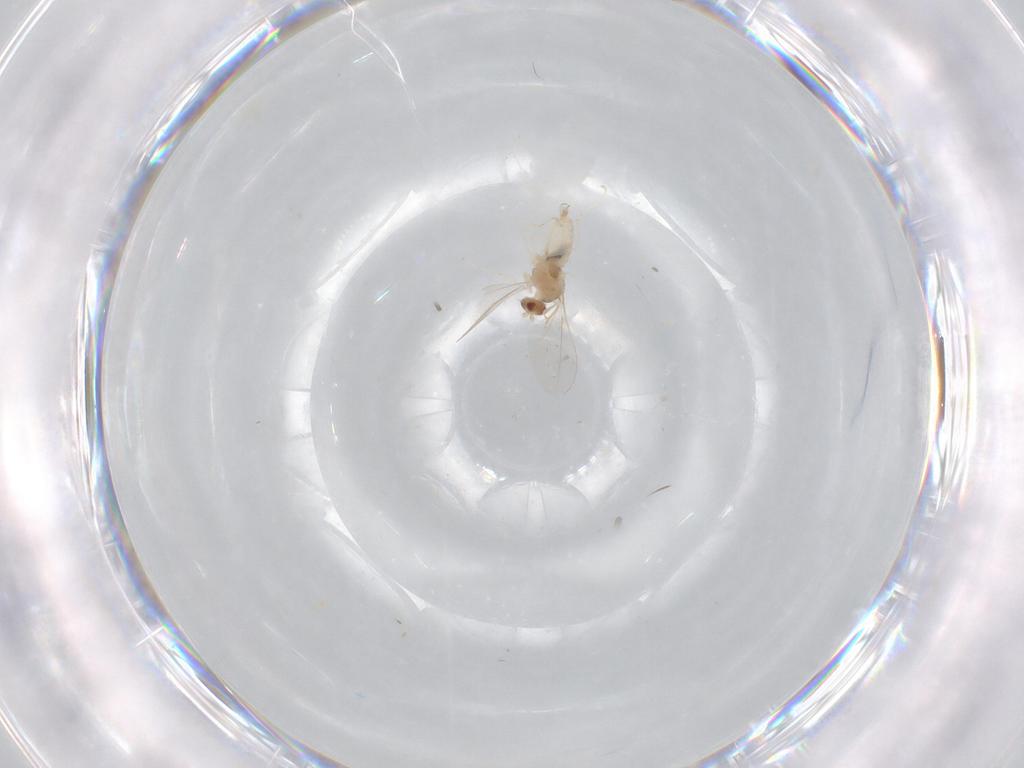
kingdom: Animalia
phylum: Arthropoda
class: Insecta
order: Diptera
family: Cecidomyiidae
